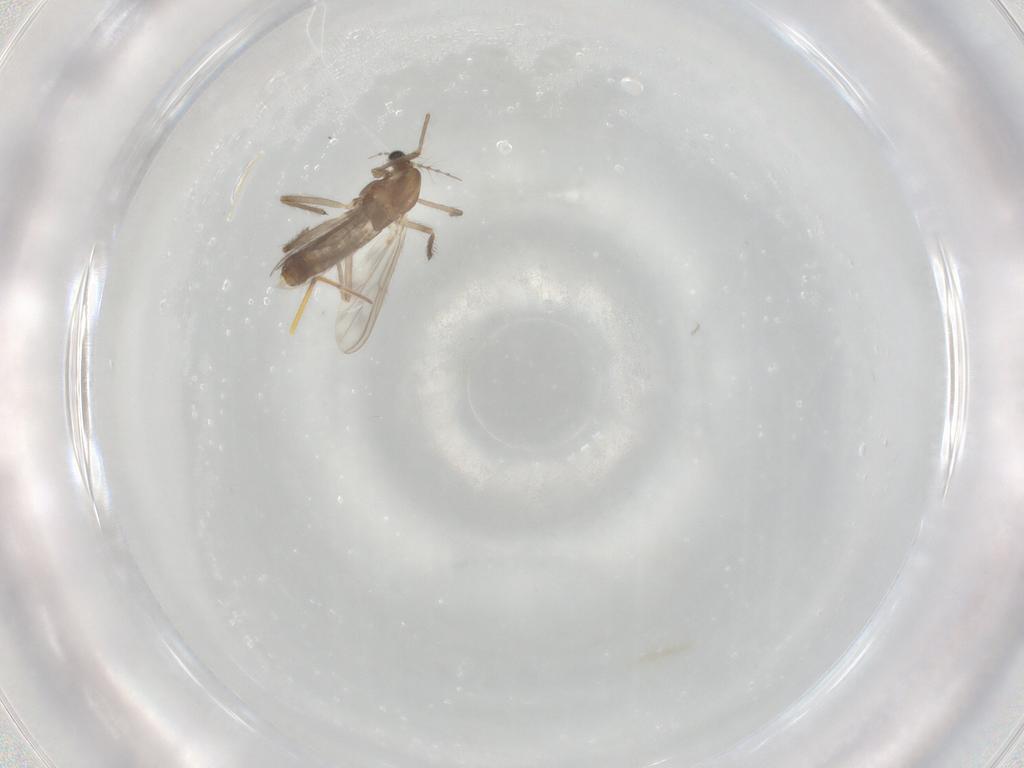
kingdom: Animalia
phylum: Arthropoda
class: Insecta
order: Diptera
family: Chironomidae
